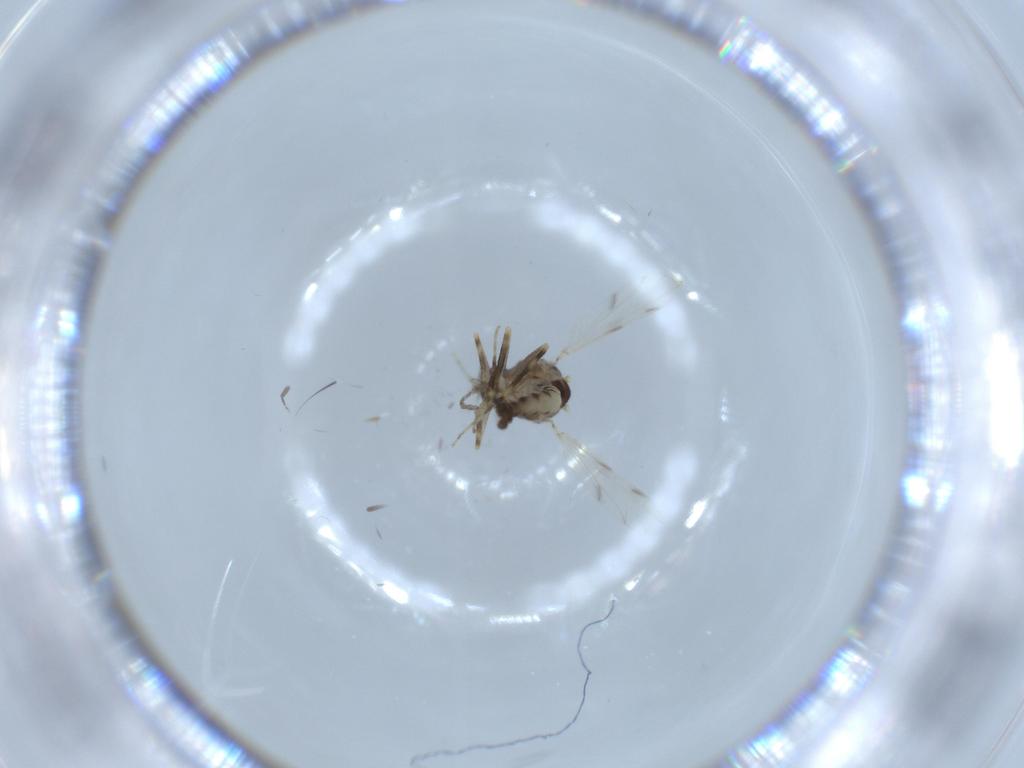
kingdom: Animalia
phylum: Arthropoda
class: Insecta
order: Diptera
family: Ceratopogonidae
